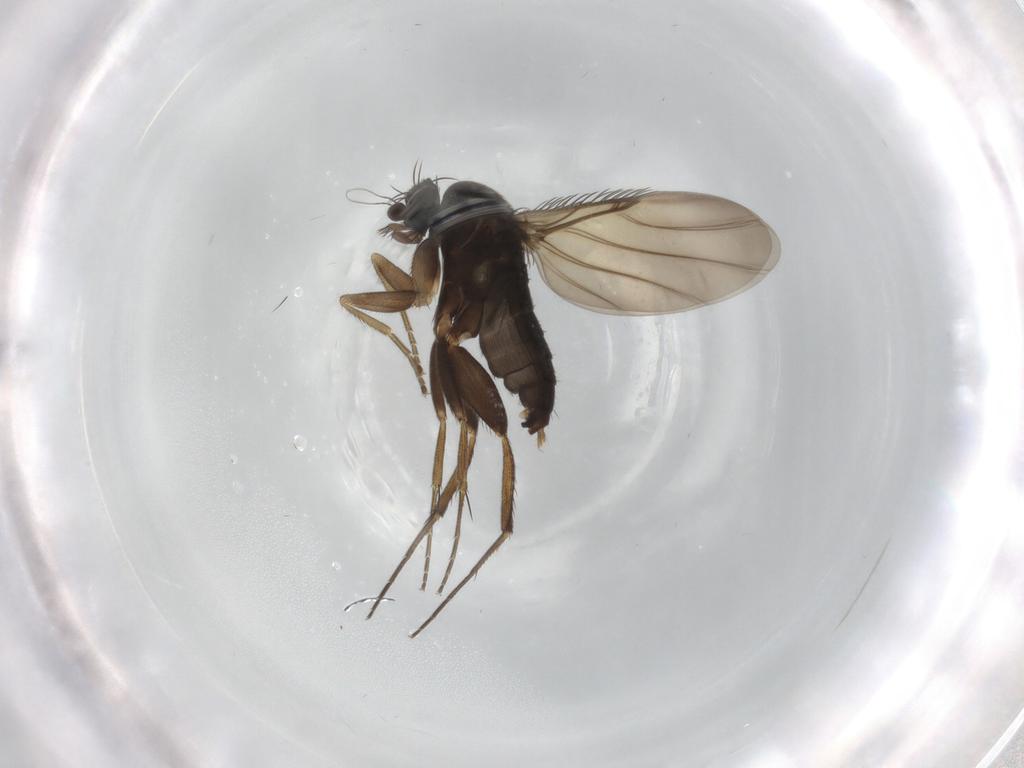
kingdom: Animalia
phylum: Arthropoda
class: Insecta
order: Diptera
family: Phoridae
